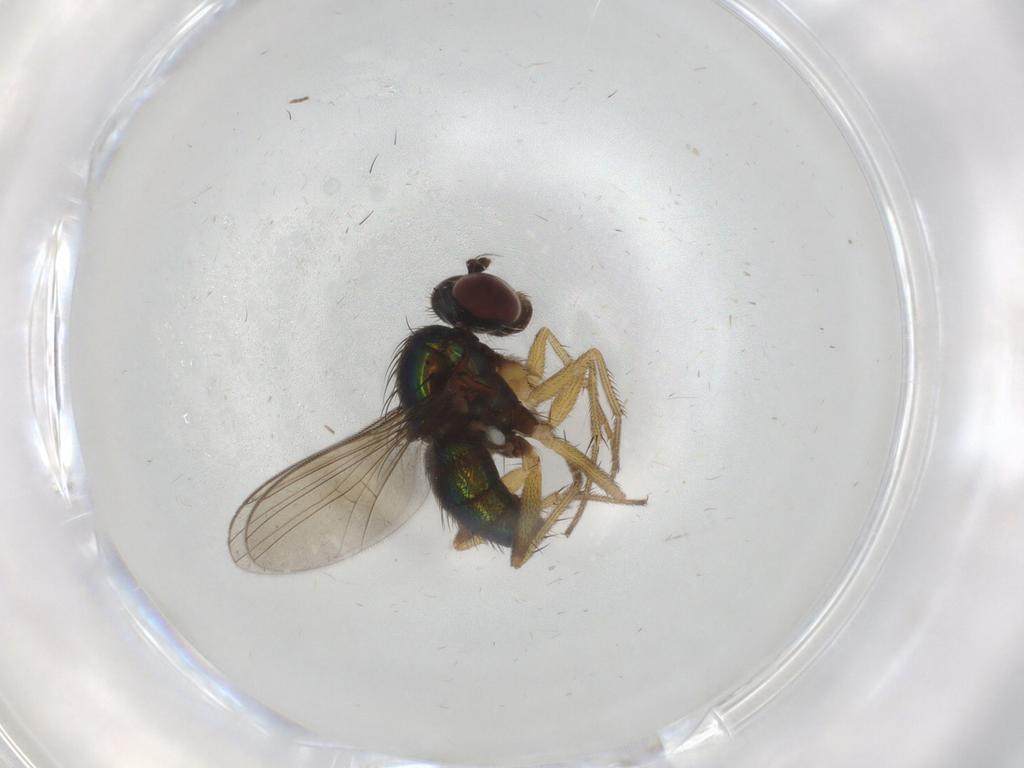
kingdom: Animalia
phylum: Arthropoda
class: Insecta
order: Diptera
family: Dolichopodidae
